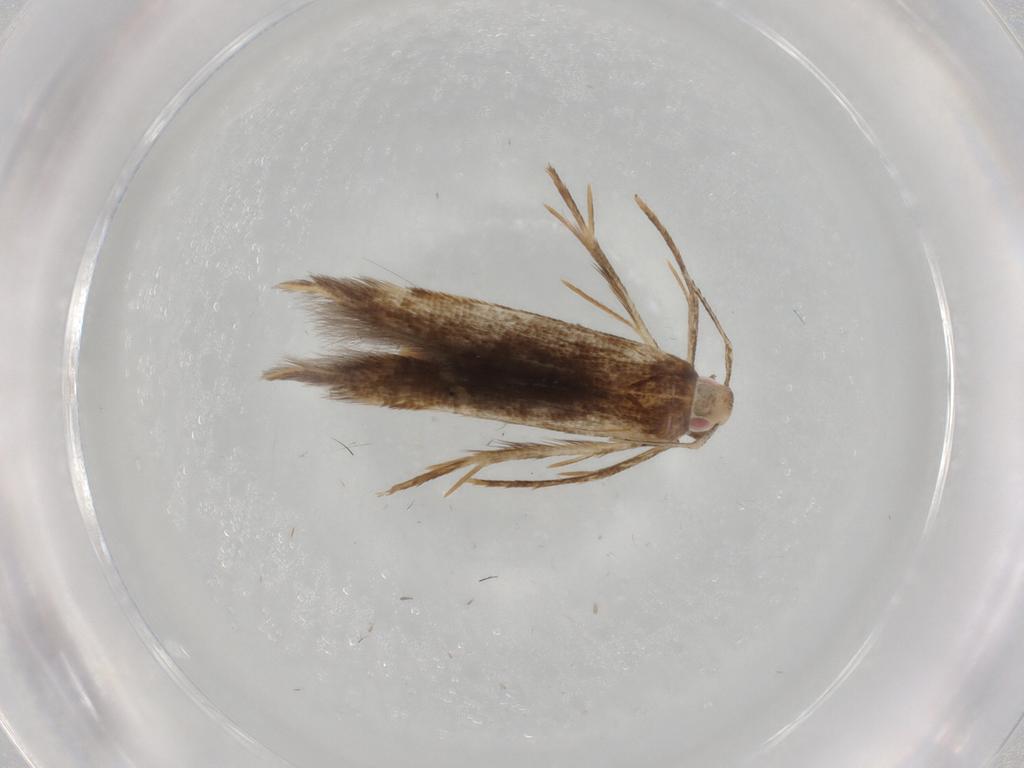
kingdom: Animalia
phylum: Arthropoda
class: Insecta
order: Lepidoptera
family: Gelechiidae
